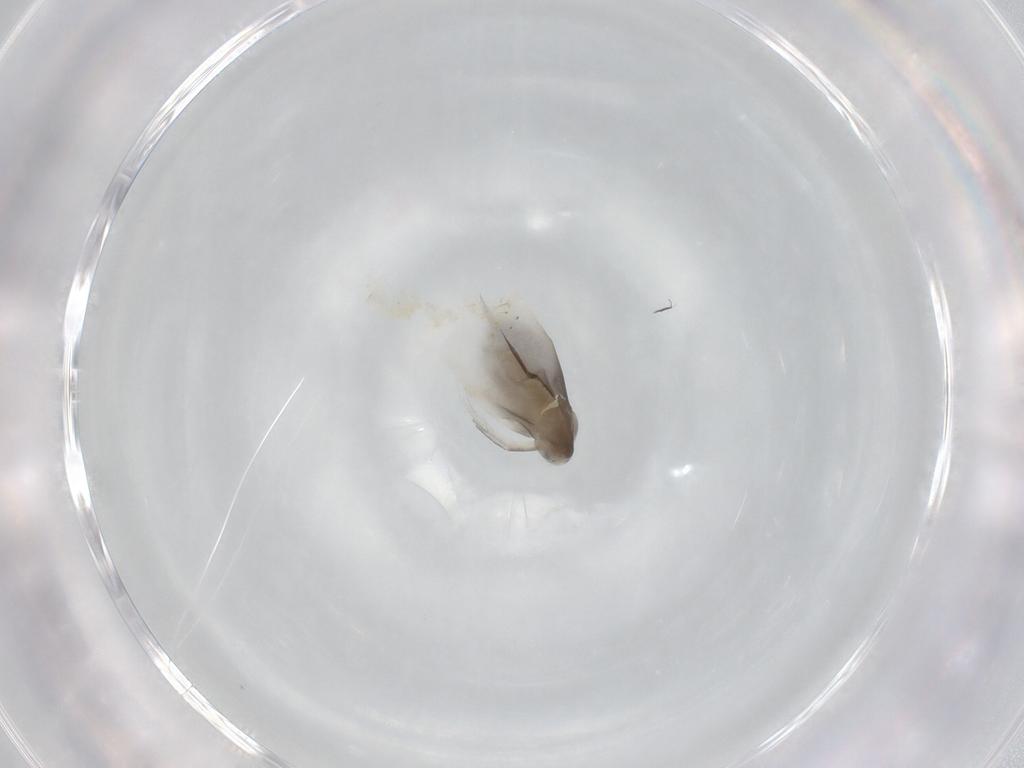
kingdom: Animalia
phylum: Arthropoda
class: Branchiopoda
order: Diplostraca
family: Daphniidae
